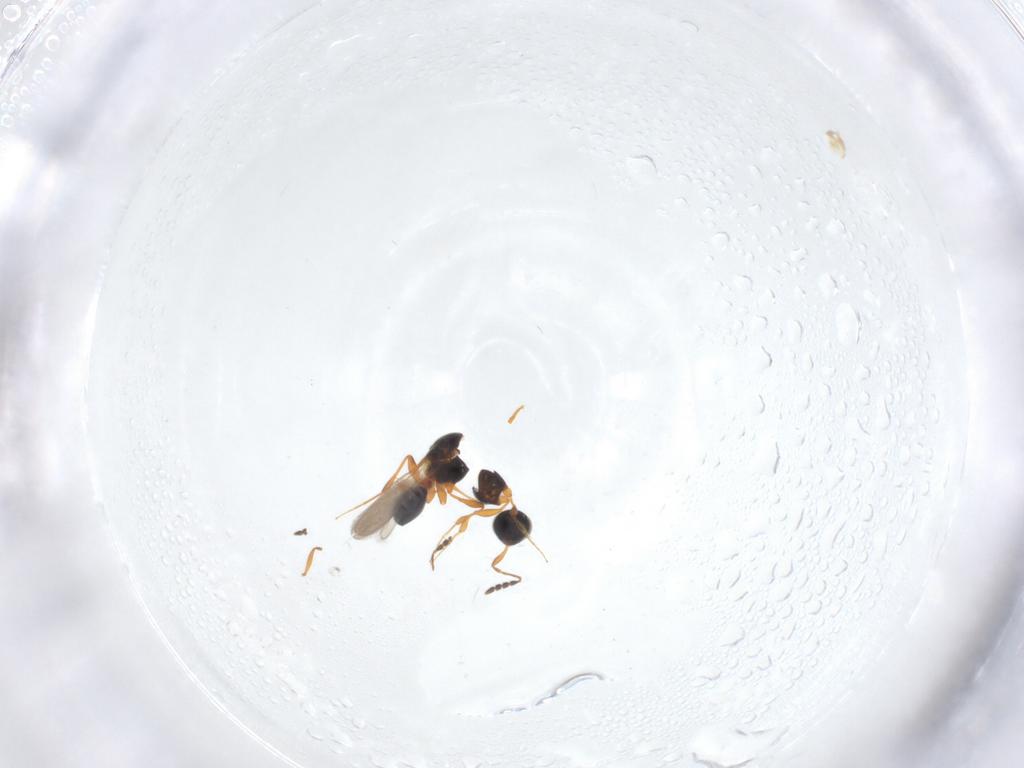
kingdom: Animalia
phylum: Arthropoda
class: Insecta
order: Hymenoptera
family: Platygastridae
